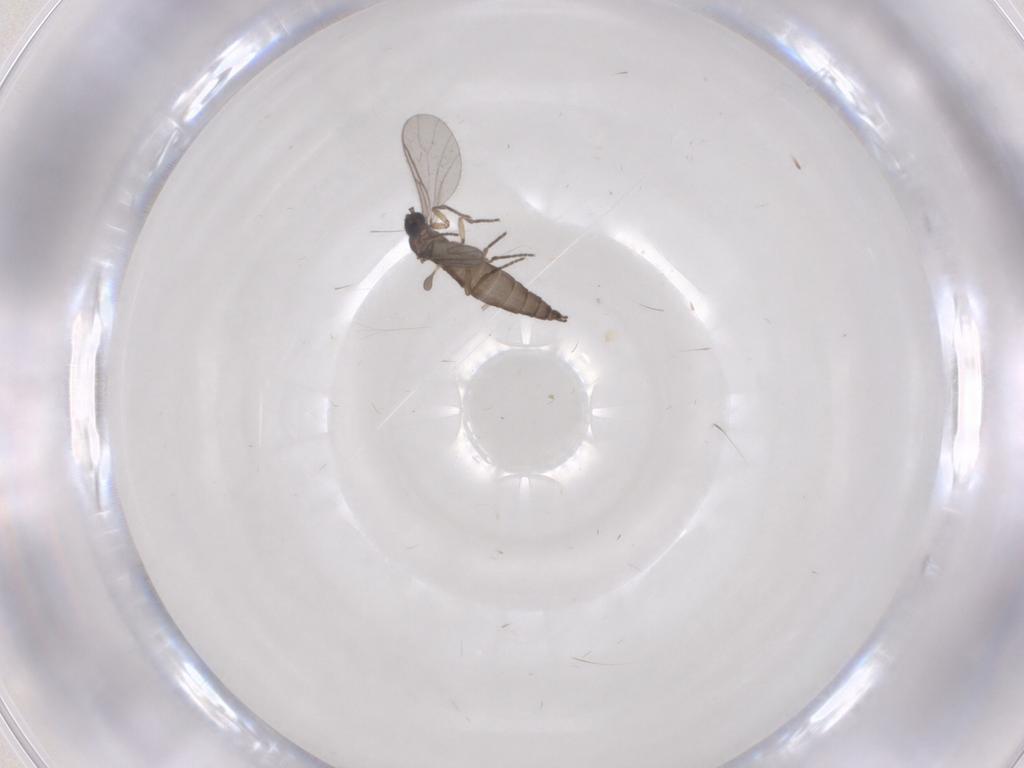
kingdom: Animalia
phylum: Arthropoda
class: Insecta
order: Diptera
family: Sciaridae
